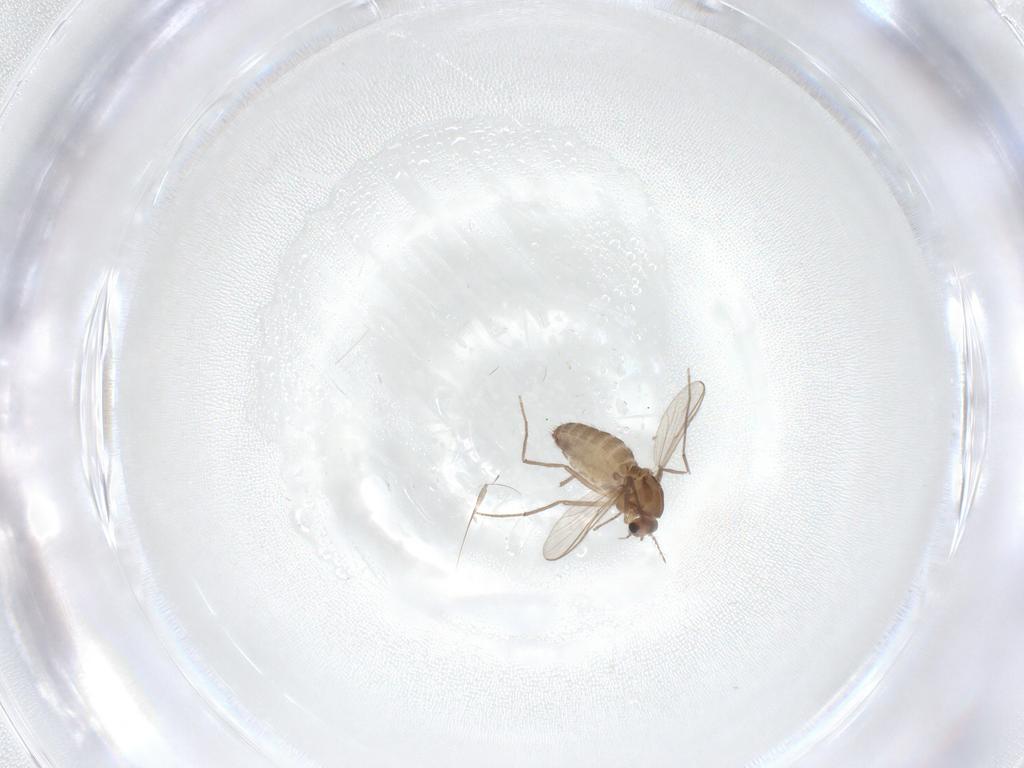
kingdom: Animalia
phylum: Arthropoda
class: Insecta
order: Diptera
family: Chironomidae
